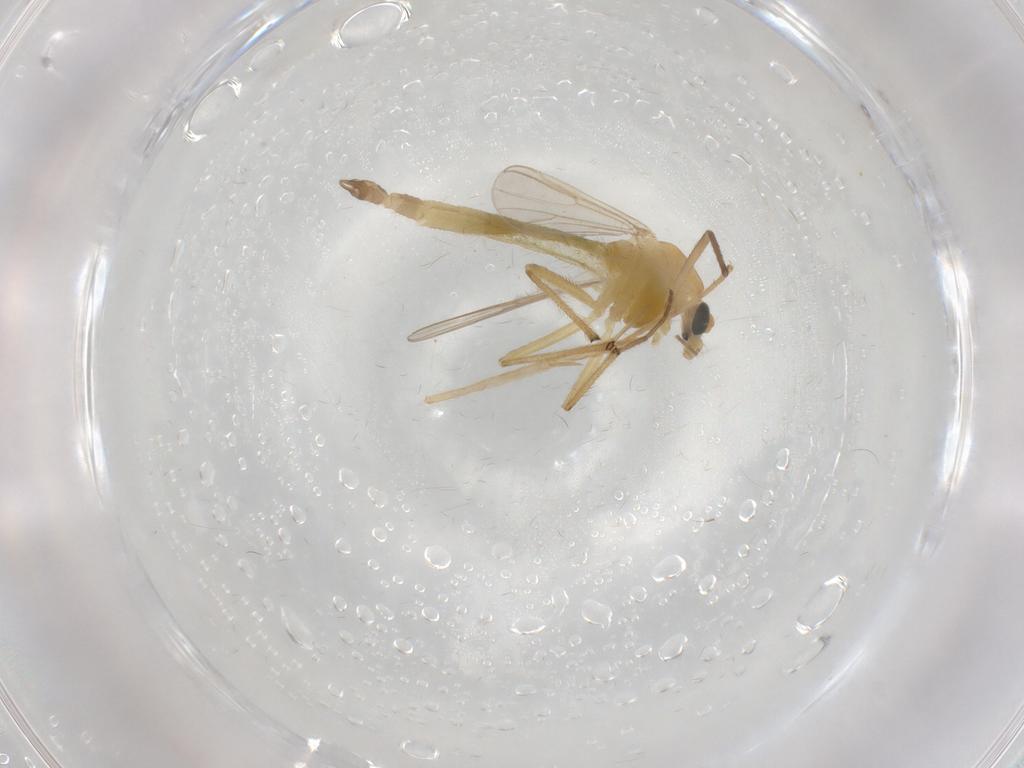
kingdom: Animalia
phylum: Arthropoda
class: Insecta
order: Diptera
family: Chironomidae
